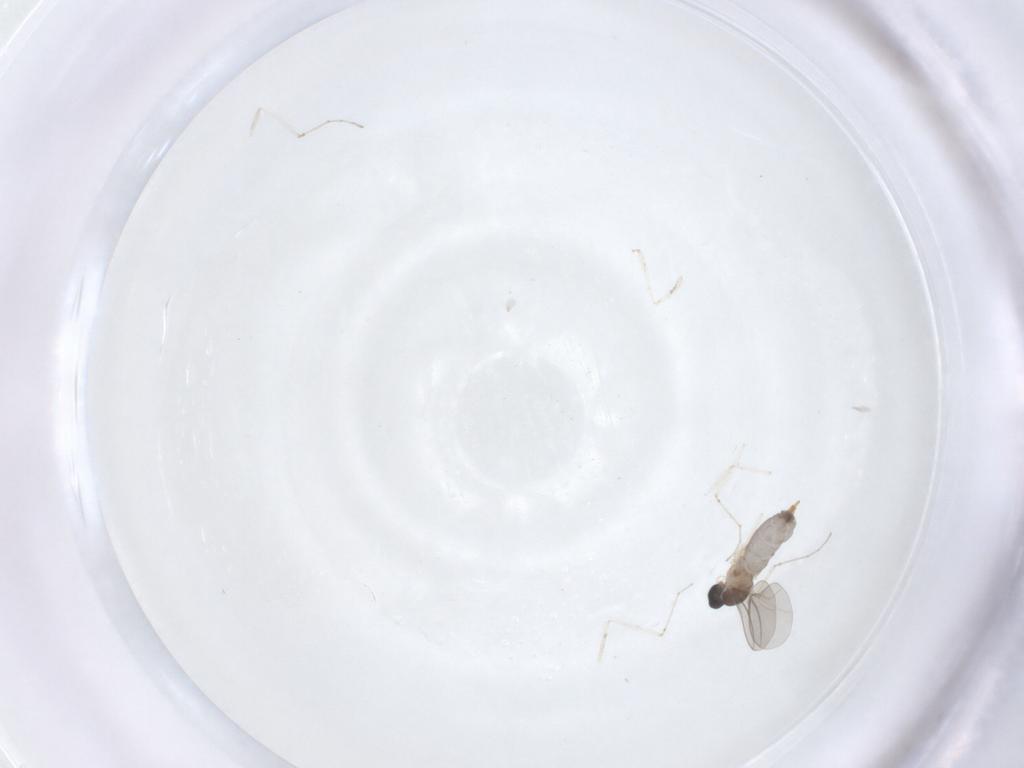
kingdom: Animalia
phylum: Arthropoda
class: Insecta
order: Diptera
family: Cecidomyiidae
